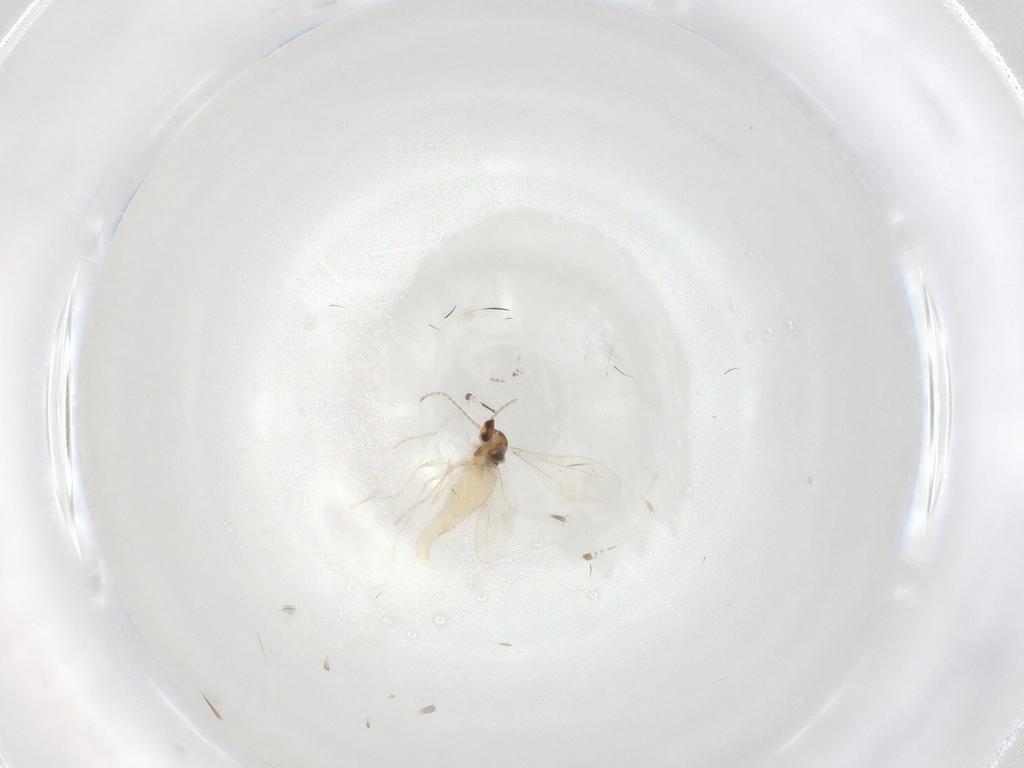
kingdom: Animalia
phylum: Arthropoda
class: Insecta
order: Diptera
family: Cecidomyiidae
